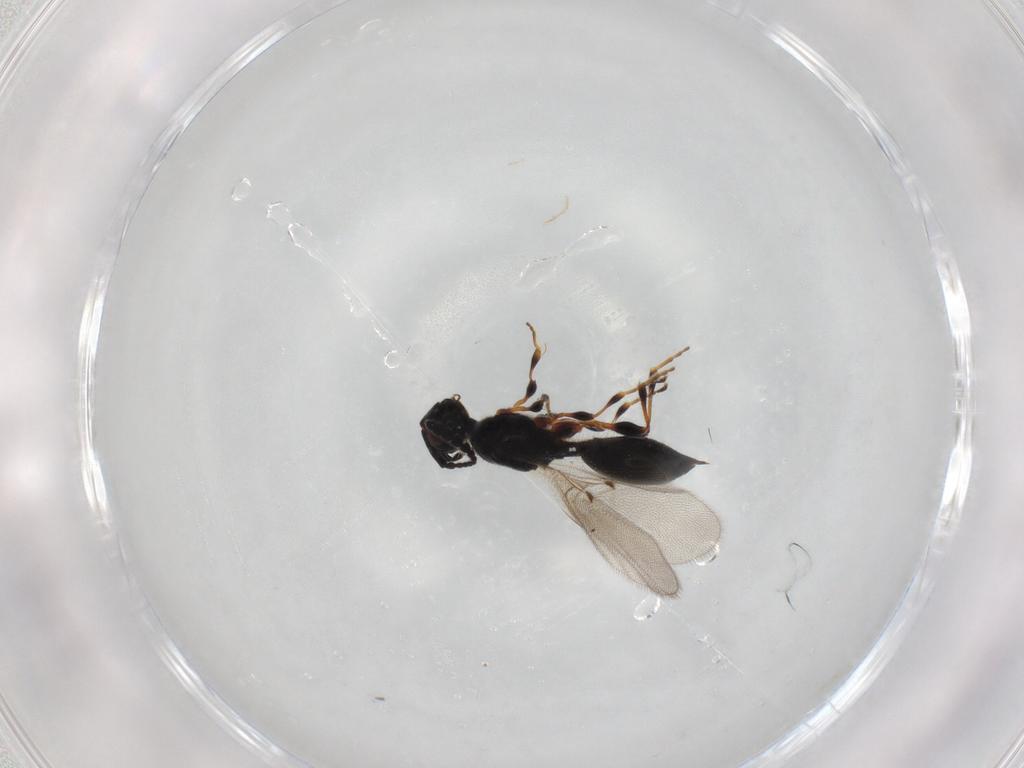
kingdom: Animalia
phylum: Arthropoda
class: Insecta
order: Hymenoptera
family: Diapriidae
